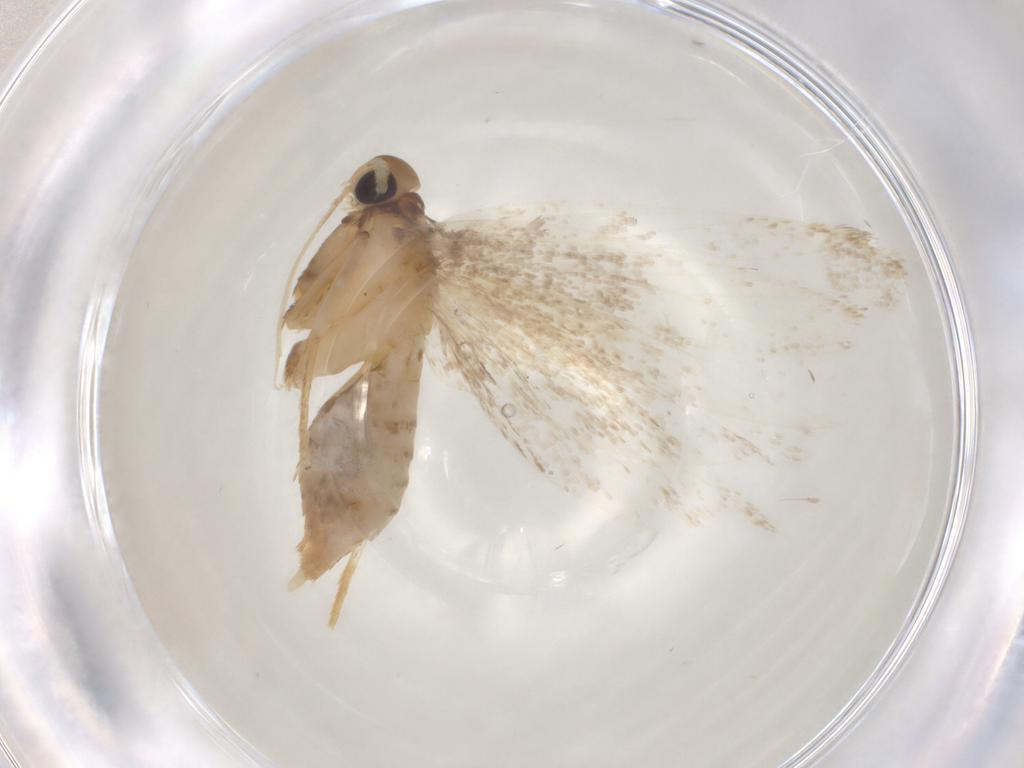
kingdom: Animalia
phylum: Arthropoda
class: Insecta
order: Lepidoptera
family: Lecithoceridae
